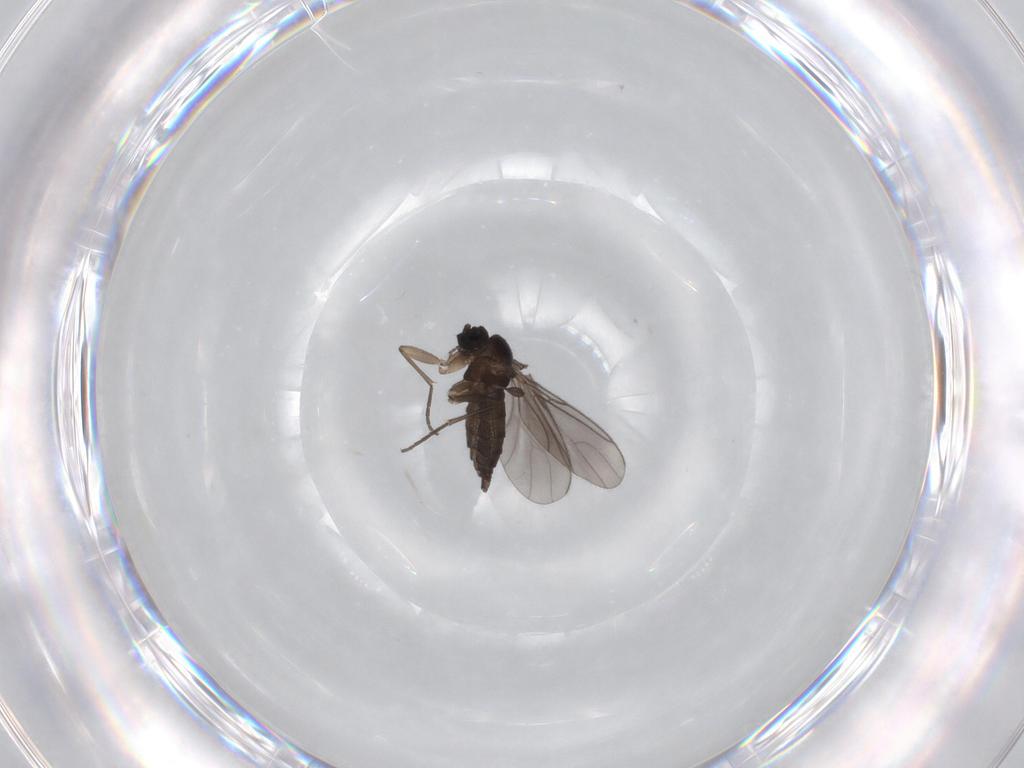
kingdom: Animalia
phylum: Arthropoda
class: Insecta
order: Diptera
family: Sciaridae
